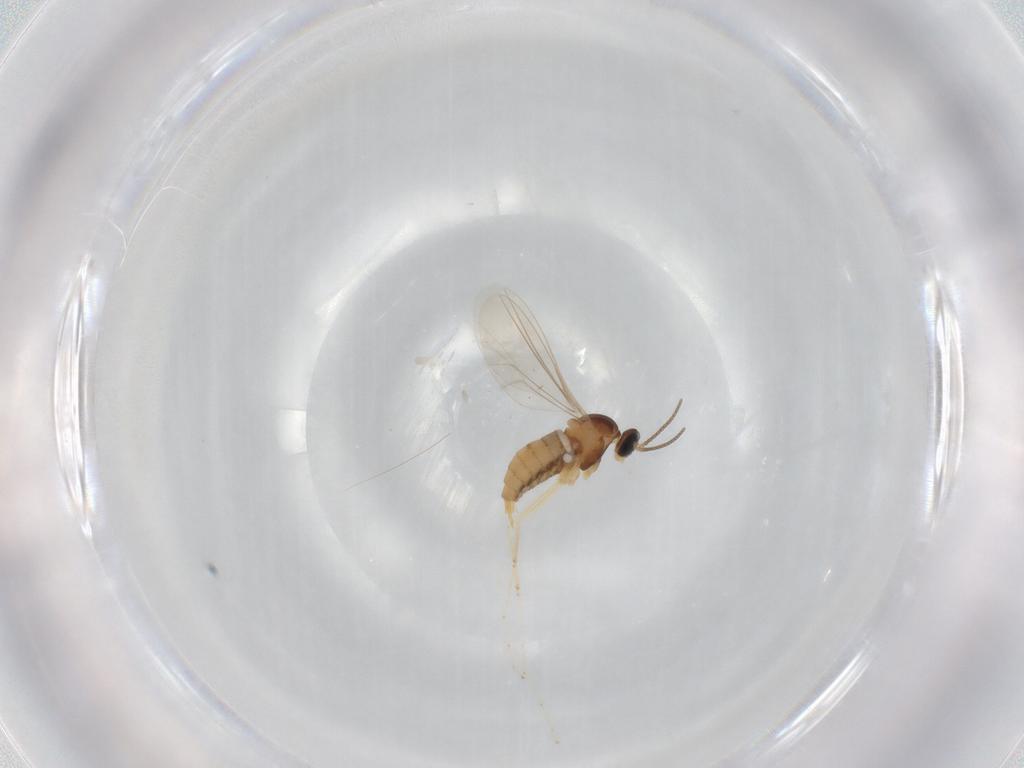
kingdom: Animalia
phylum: Arthropoda
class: Insecta
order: Diptera
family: Cecidomyiidae
